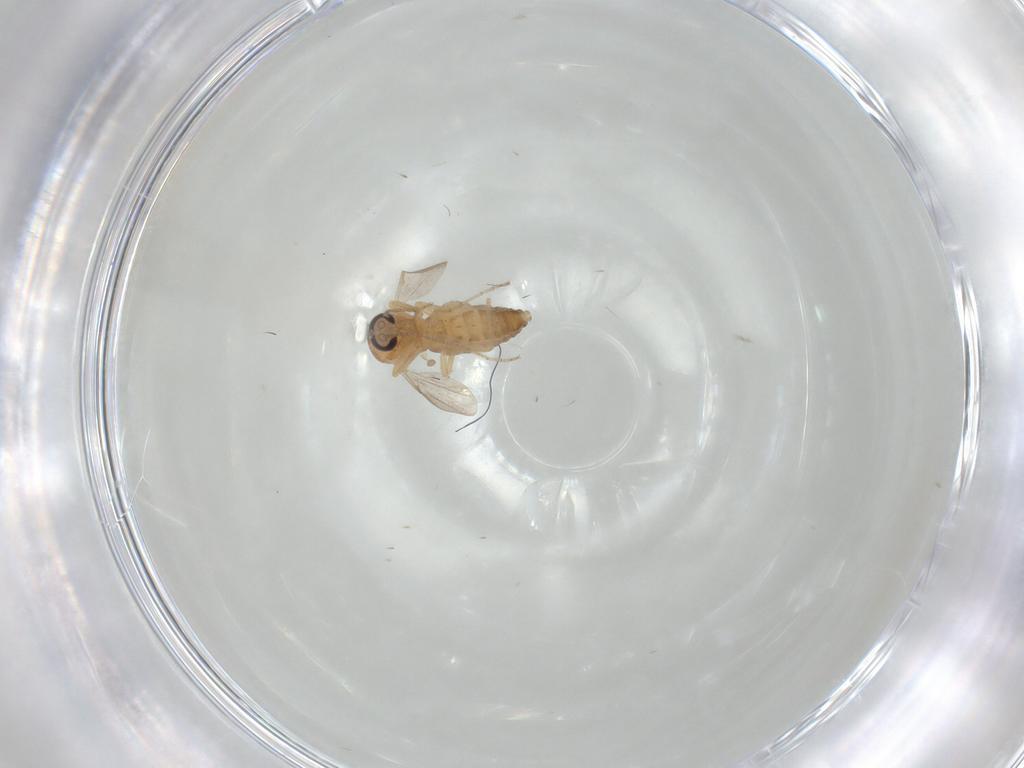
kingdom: Animalia
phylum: Arthropoda
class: Insecta
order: Diptera
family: Ceratopogonidae
